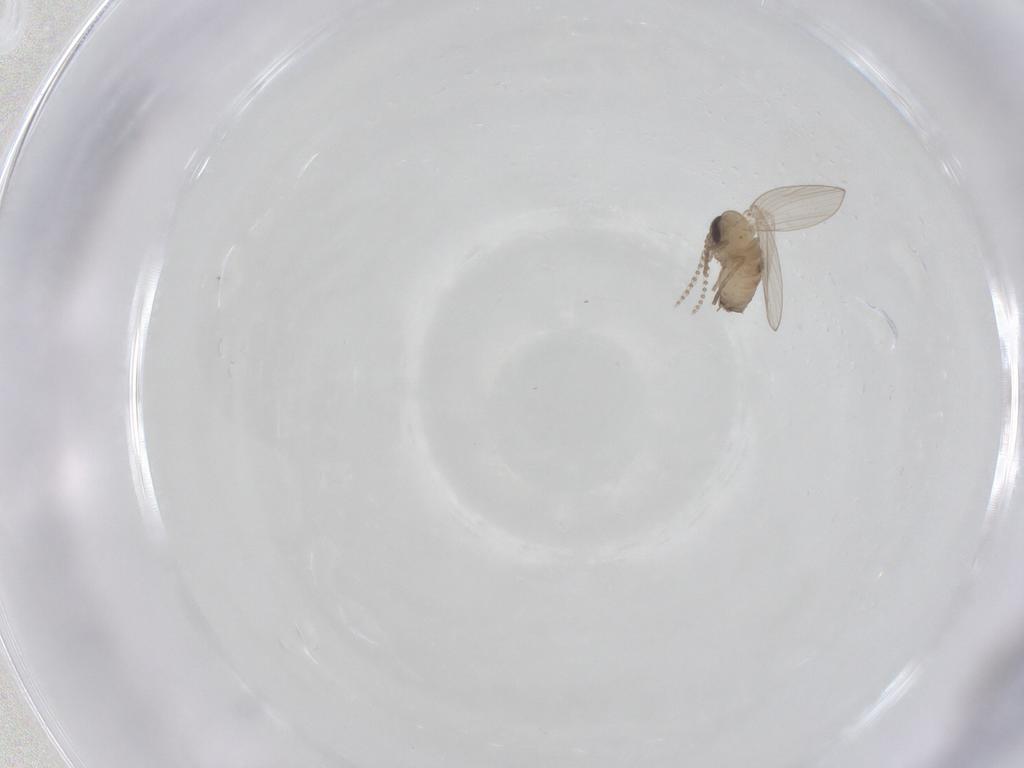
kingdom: Animalia
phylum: Arthropoda
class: Insecta
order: Diptera
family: Psychodidae
